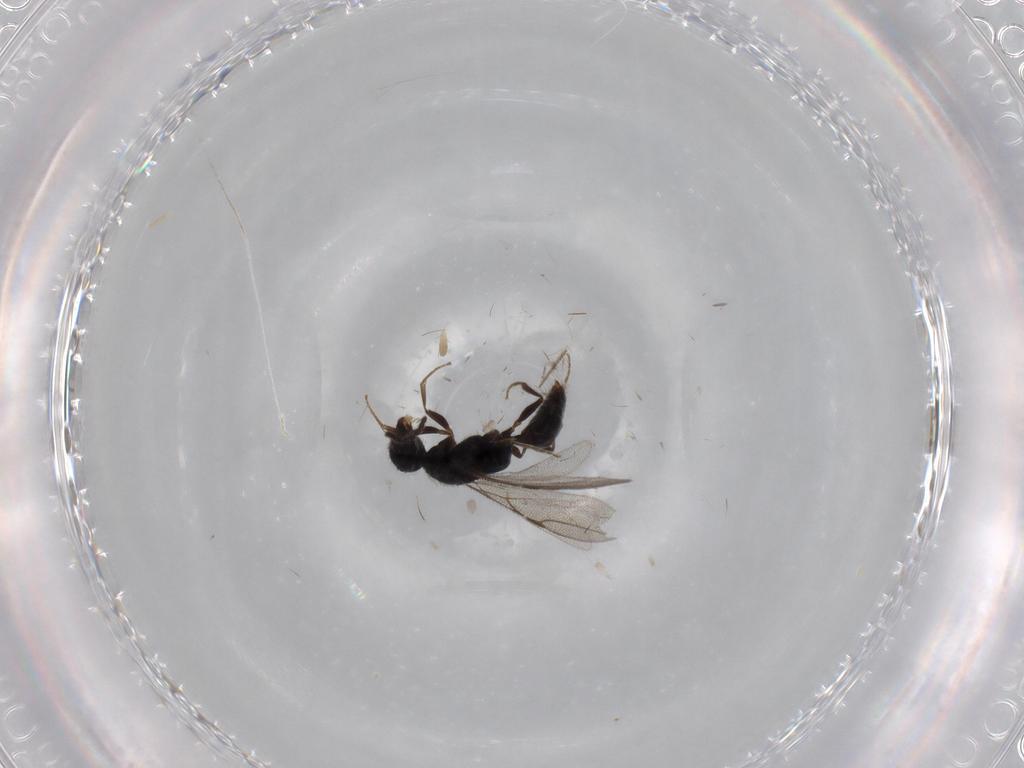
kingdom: Animalia
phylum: Arthropoda
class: Insecta
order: Hymenoptera
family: Bethylidae
